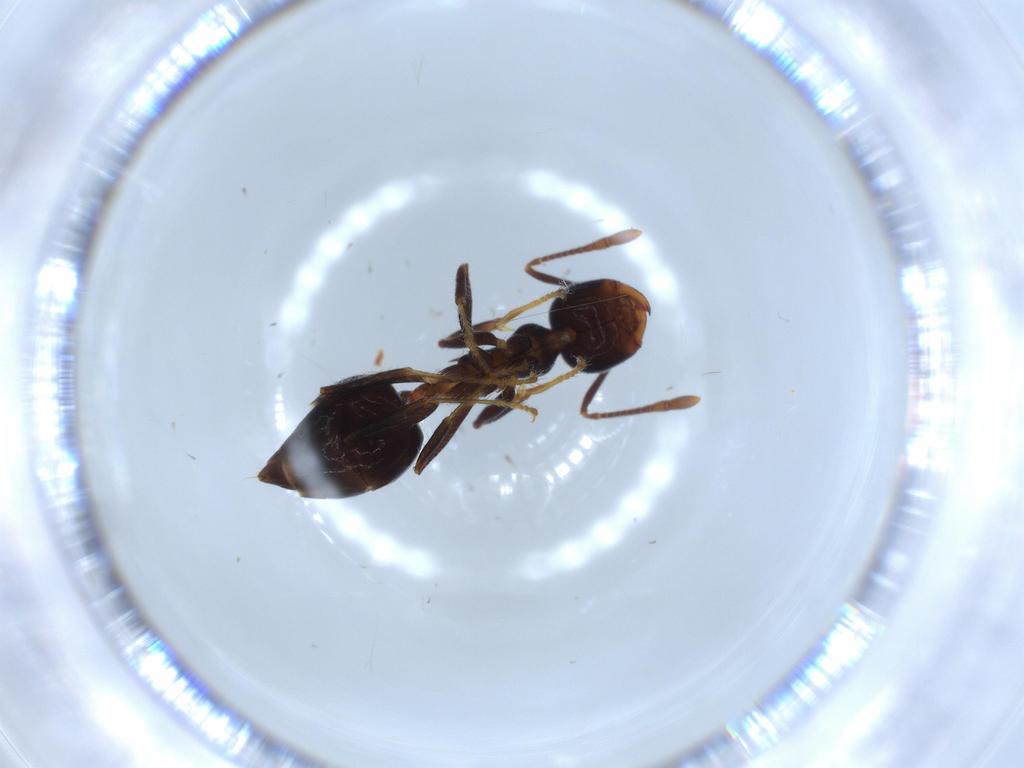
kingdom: Animalia
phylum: Arthropoda
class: Insecta
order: Hymenoptera
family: Formicidae
